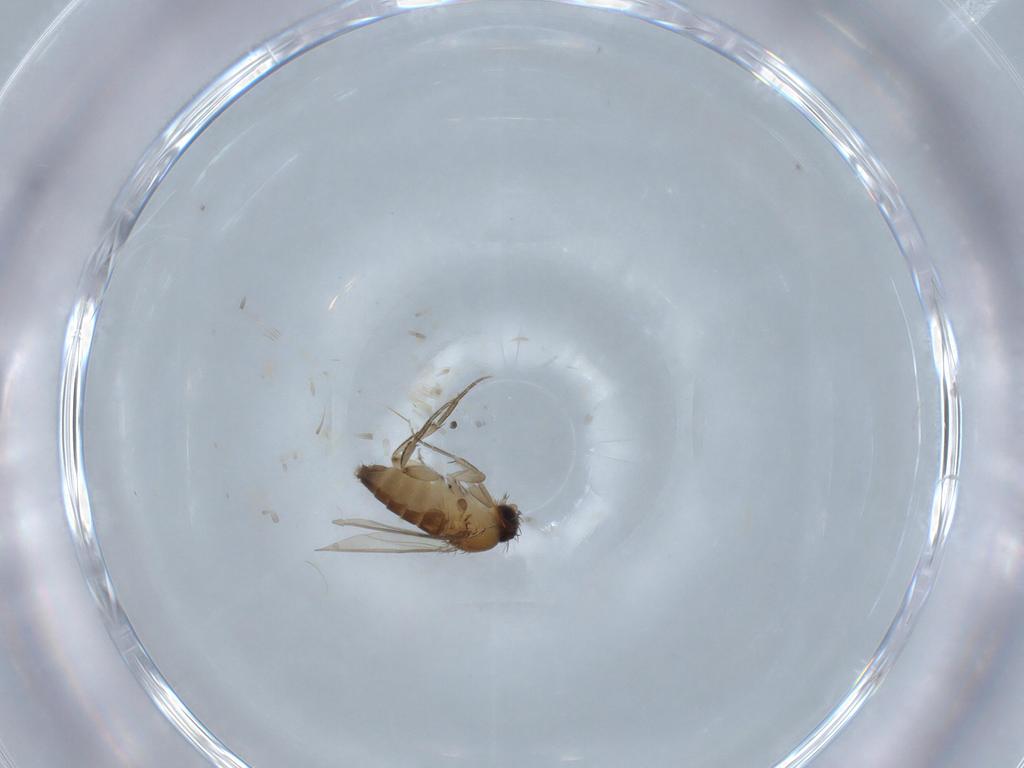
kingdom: Animalia
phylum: Arthropoda
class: Insecta
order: Diptera
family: Phoridae
